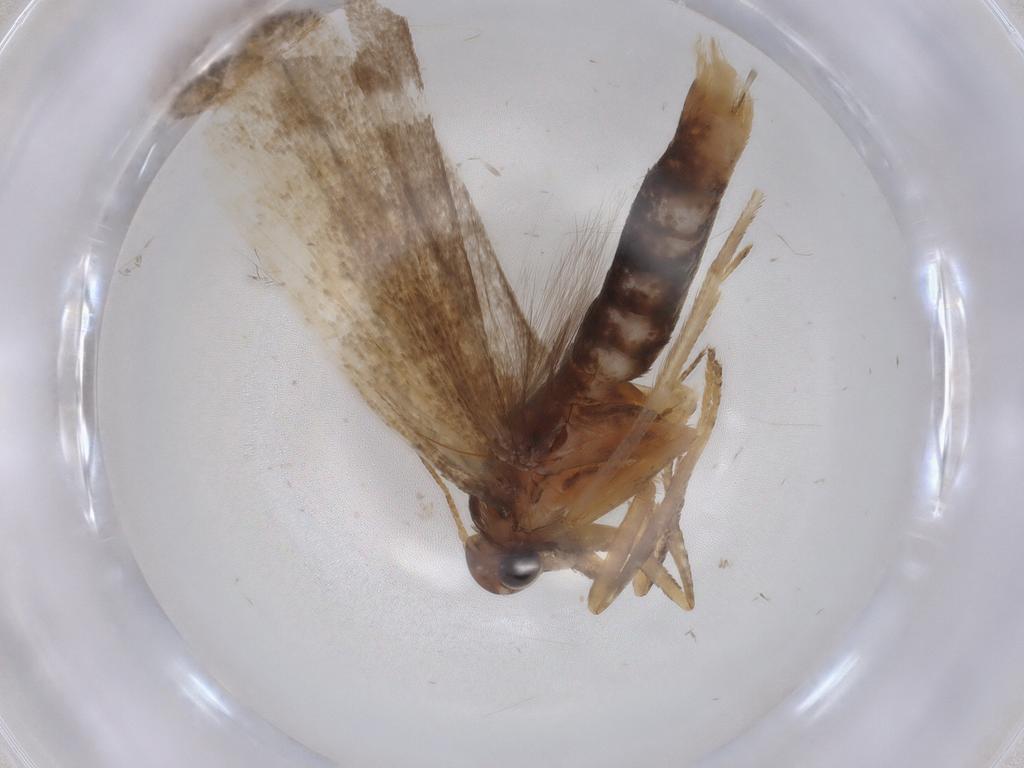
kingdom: Animalia
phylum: Arthropoda
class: Insecta
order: Lepidoptera
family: Gelechiidae
